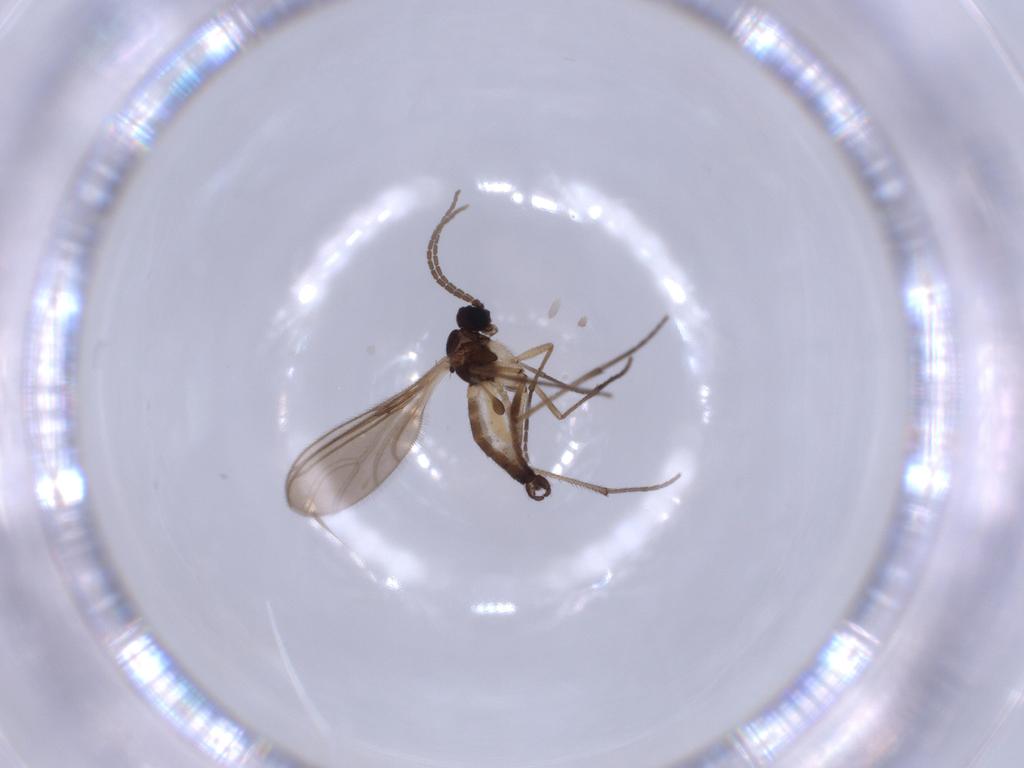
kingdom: Animalia
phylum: Arthropoda
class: Insecta
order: Diptera
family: Sciaridae
